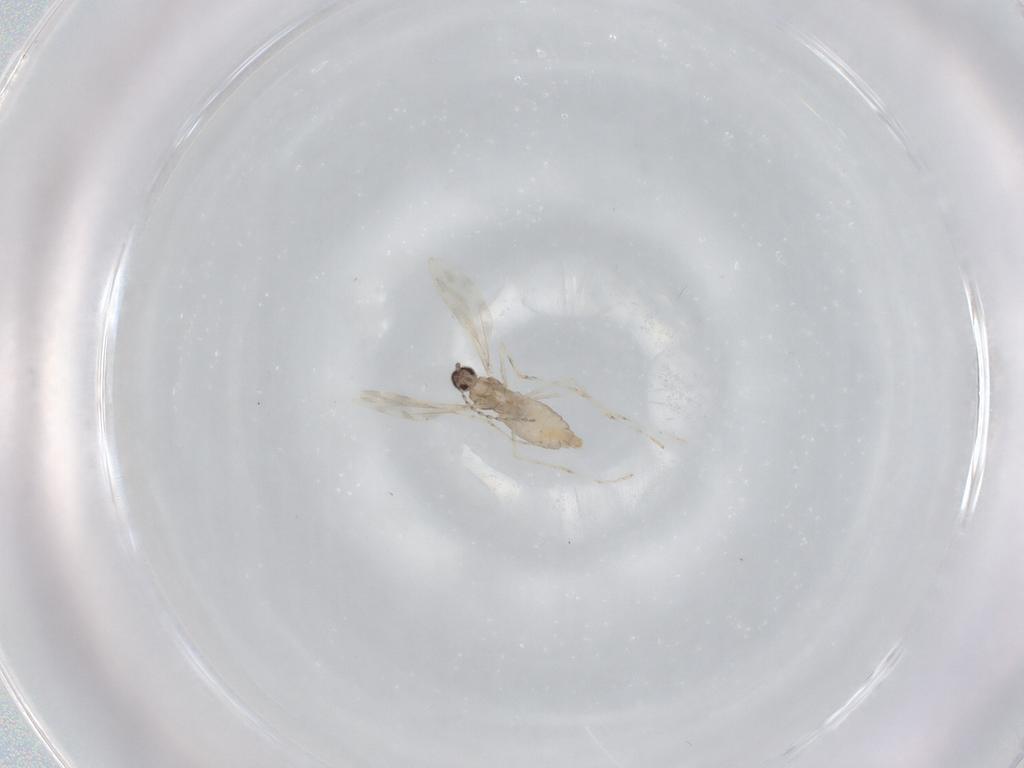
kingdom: Animalia
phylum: Arthropoda
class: Insecta
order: Diptera
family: Cecidomyiidae
